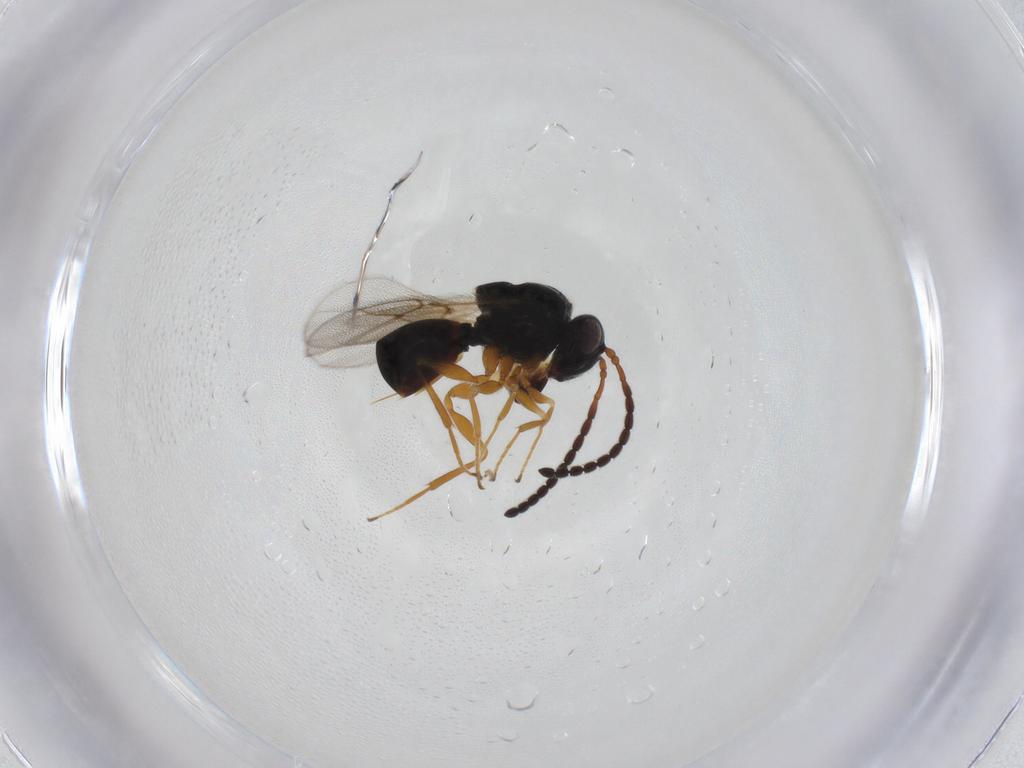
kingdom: Animalia
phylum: Arthropoda
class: Insecta
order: Hymenoptera
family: Figitidae
